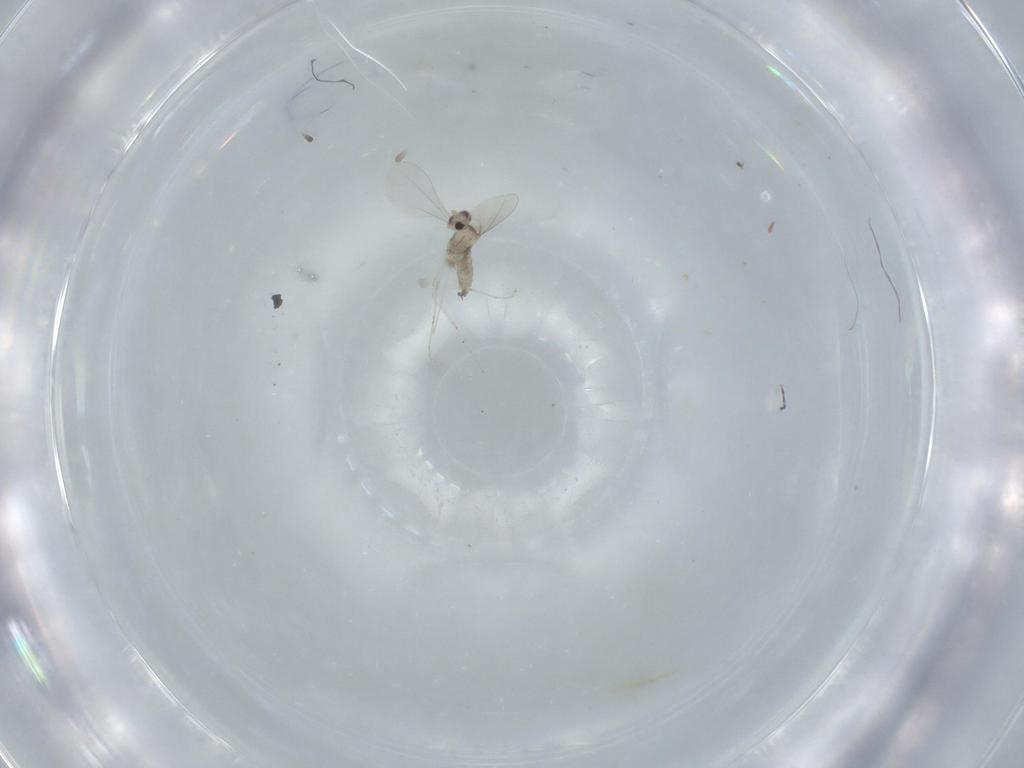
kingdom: Animalia
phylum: Arthropoda
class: Insecta
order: Diptera
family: Cecidomyiidae
